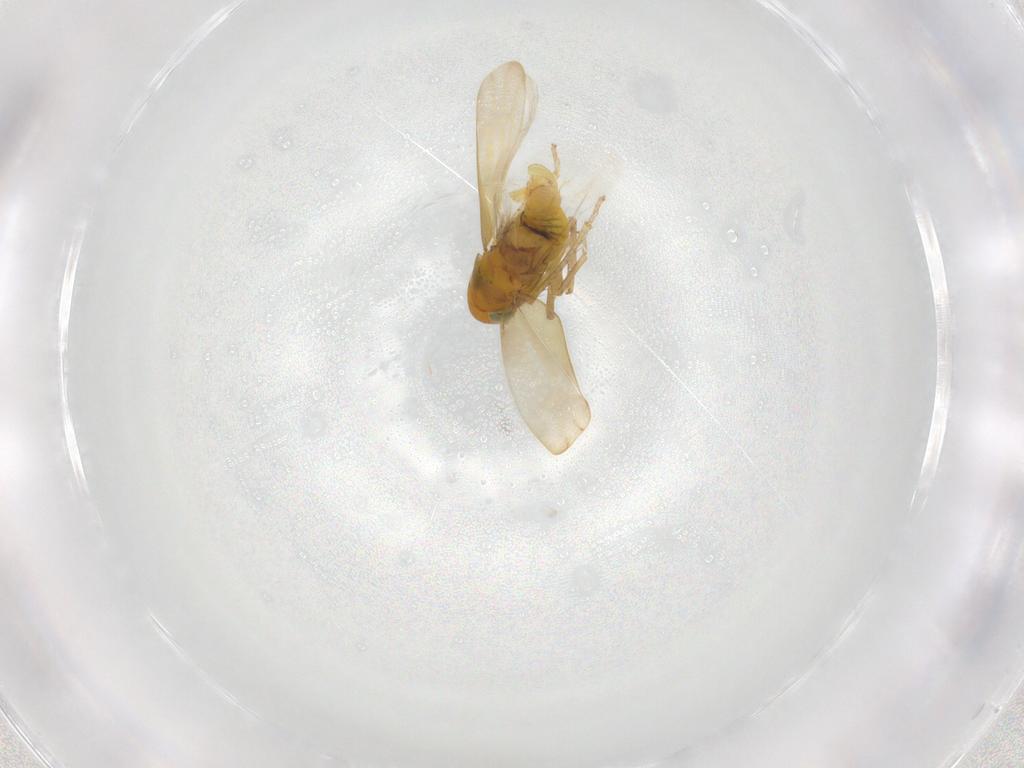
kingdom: Animalia
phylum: Arthropoda
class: Insecta
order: Hemiptera
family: Cicadellidae
